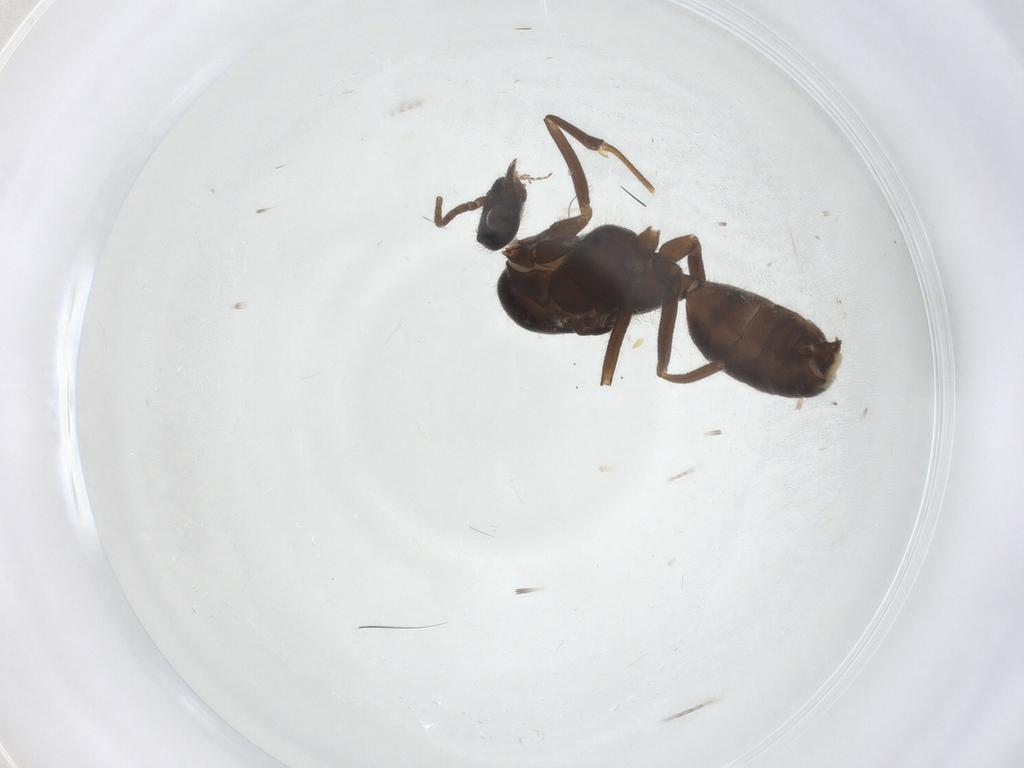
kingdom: Animalia
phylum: Arthropoda
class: Insecta
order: Hymenoptera
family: Formicidae
